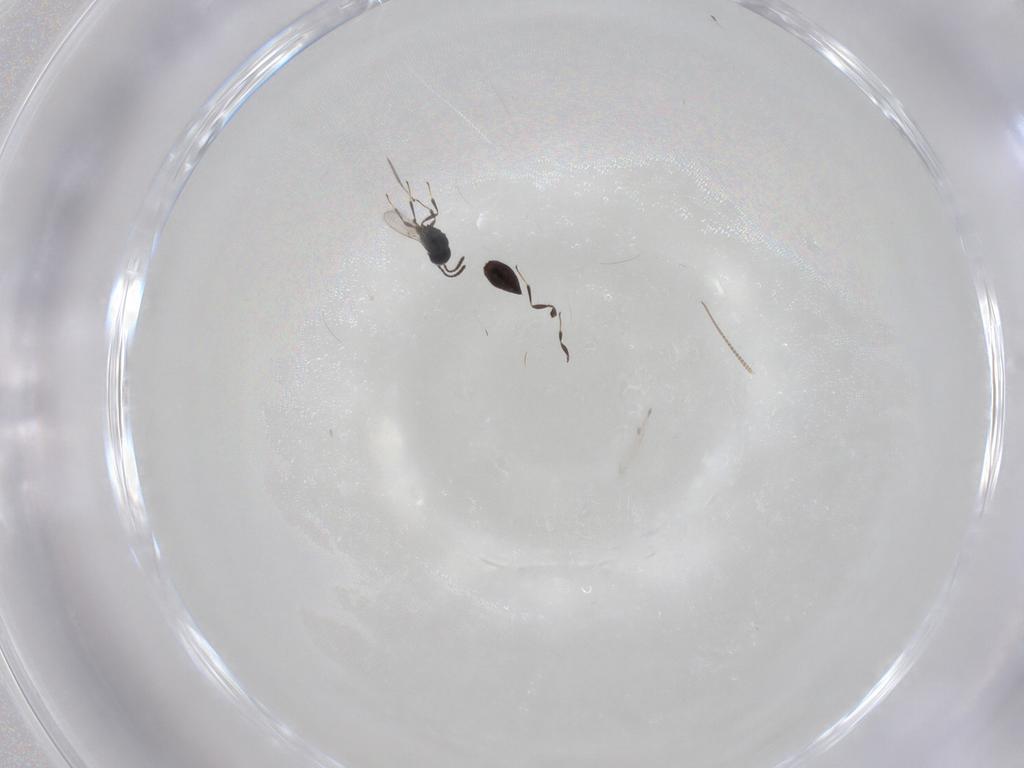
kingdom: Animalia
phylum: Arthropoda
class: Insecta
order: Hymenoptera
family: Scelionidae
